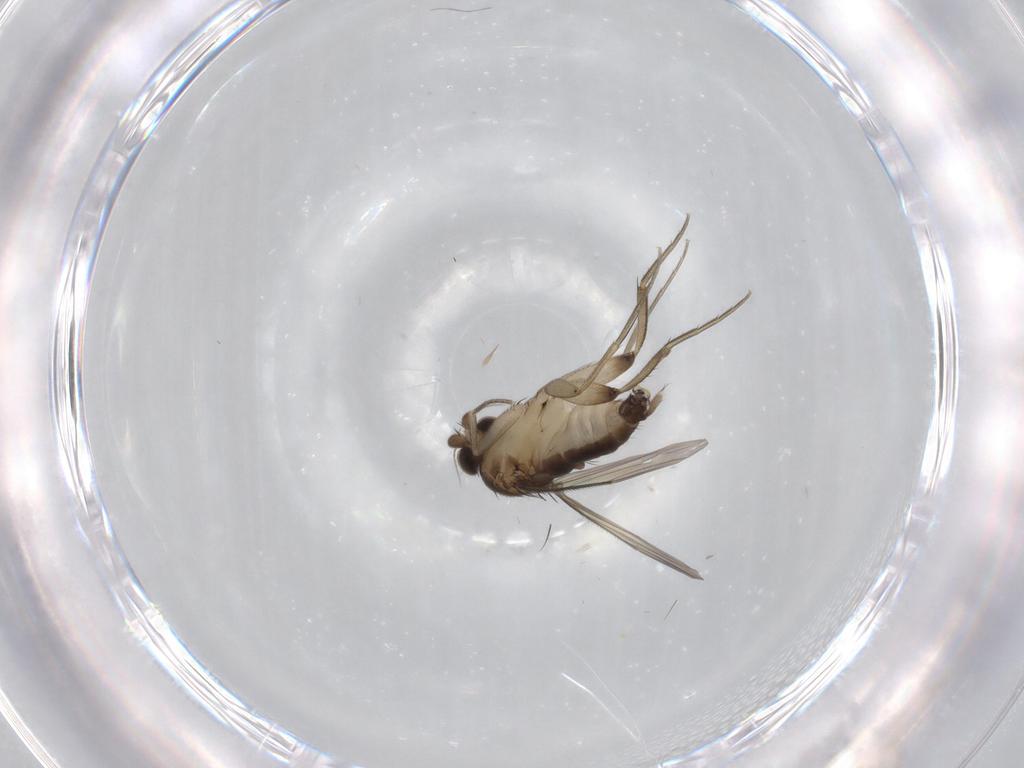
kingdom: Animalia
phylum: Arthropoda
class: Insecta
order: Diptera
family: Phoridae
